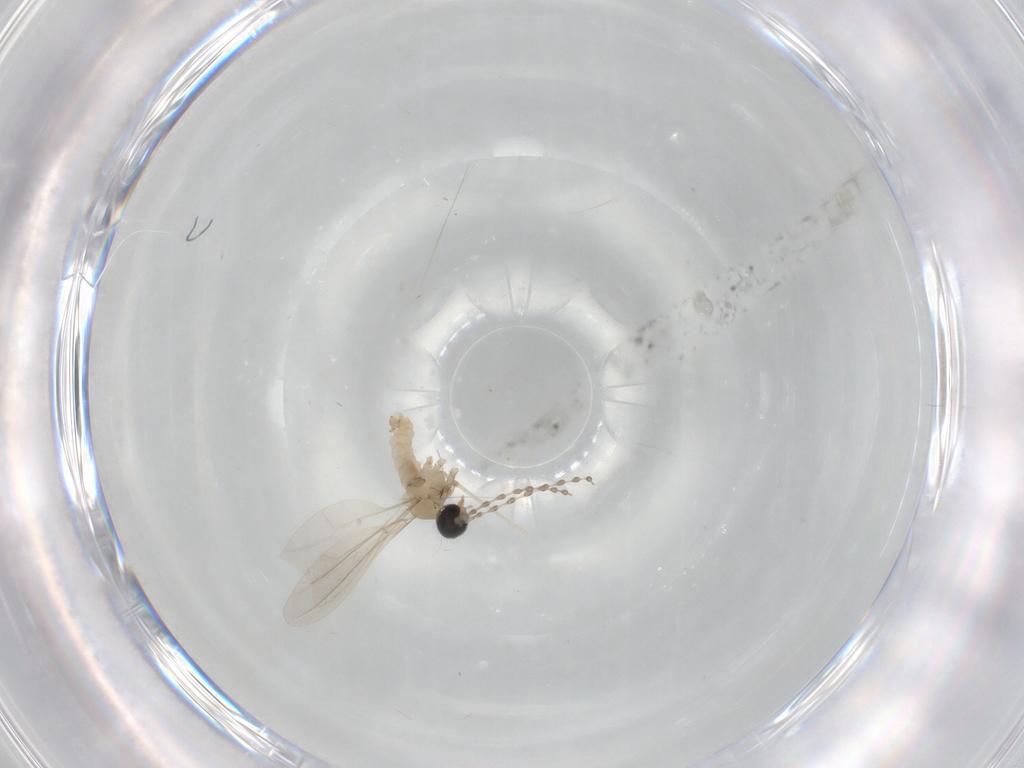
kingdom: Animalia
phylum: Arthropoda
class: Insecta
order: Diptera
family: Cecidomyiidae
